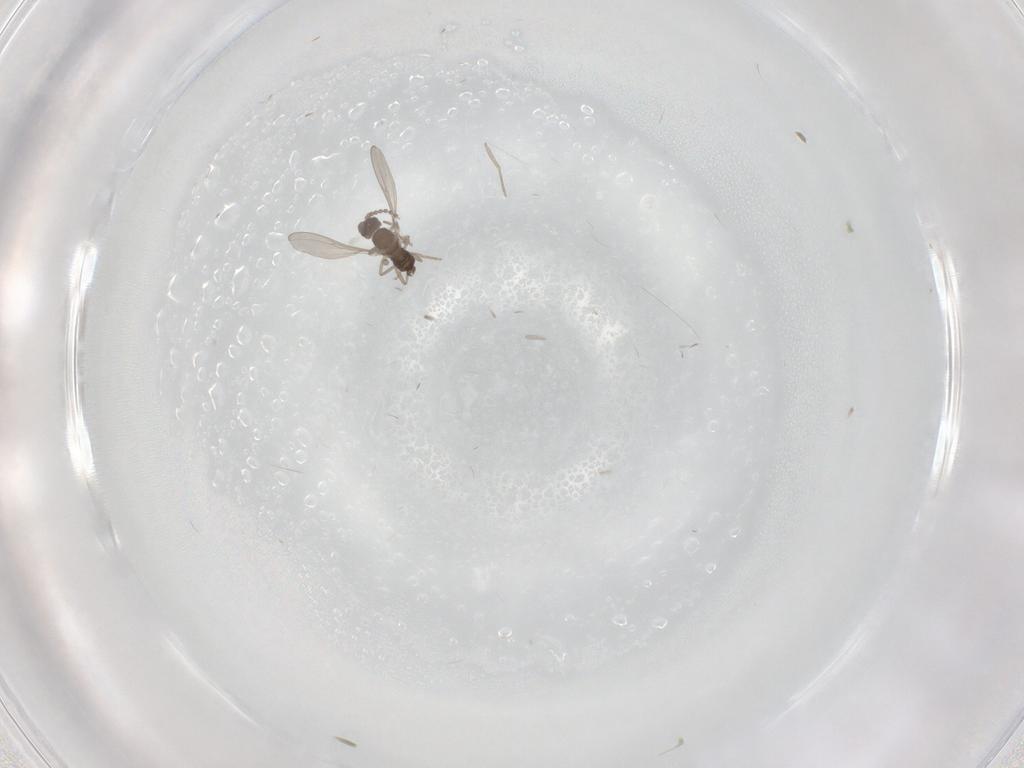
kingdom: Animalia
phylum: Arthropoda
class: Insecta
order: Diptera
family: Cecidomyiidae
